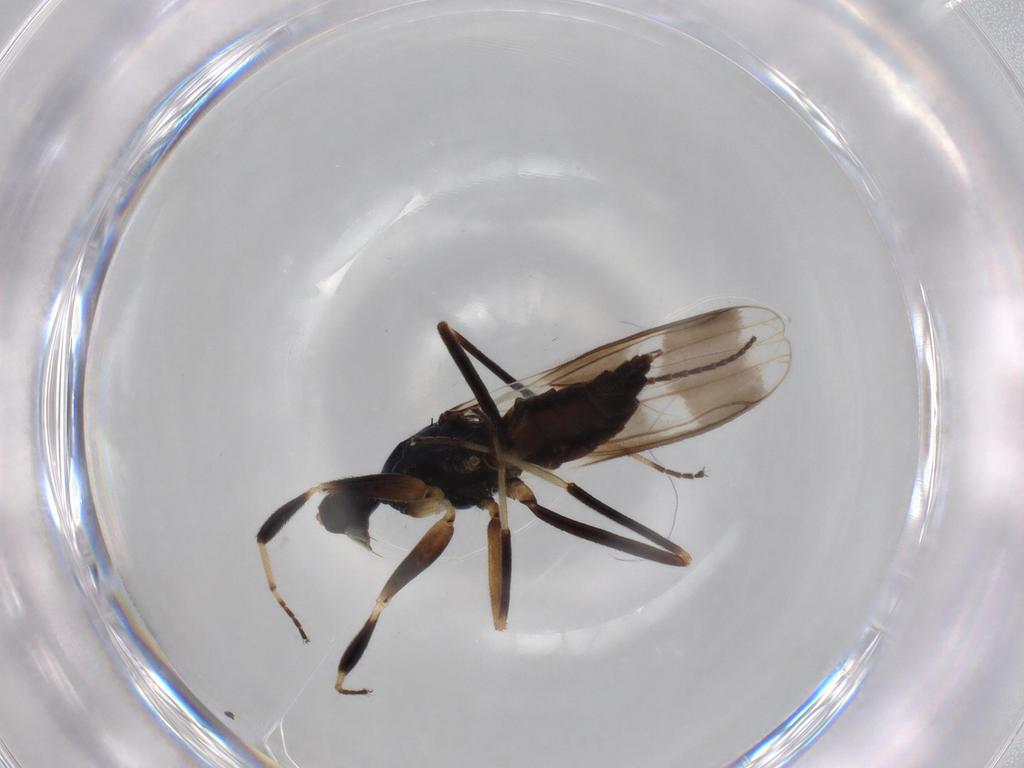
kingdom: Animalia
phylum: Arthropoda
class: Insecta
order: Diptera
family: Hybotidae
